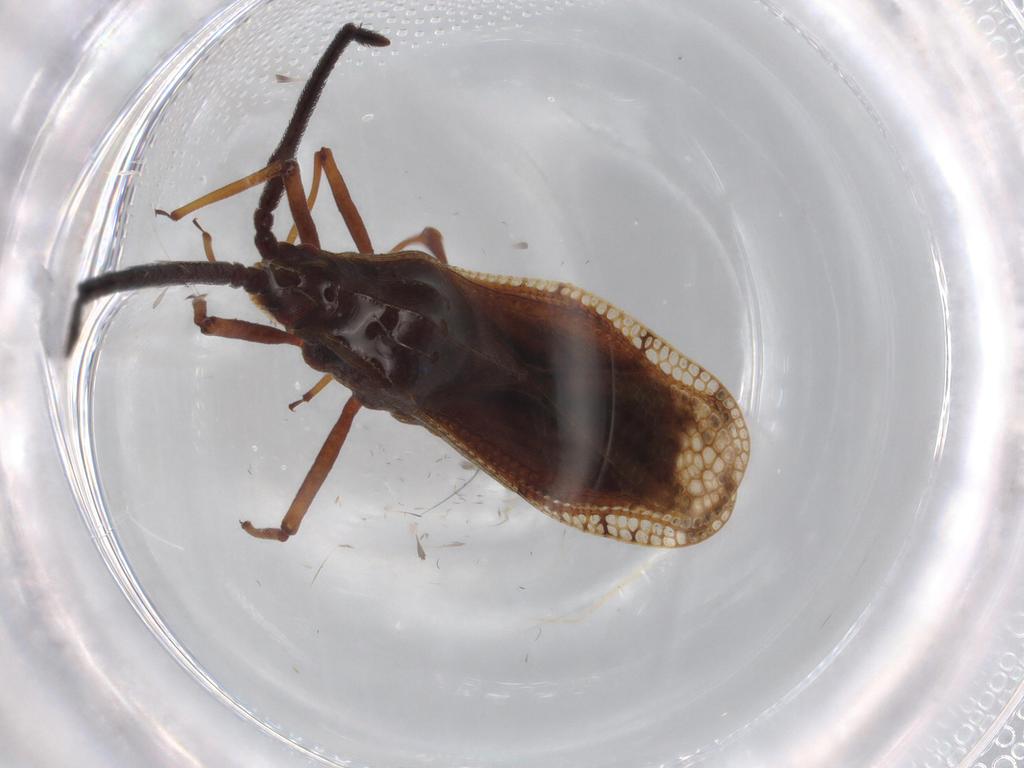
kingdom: Animalia
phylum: Arthropoda
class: Insecta
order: Hemiptera
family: Tingidae
